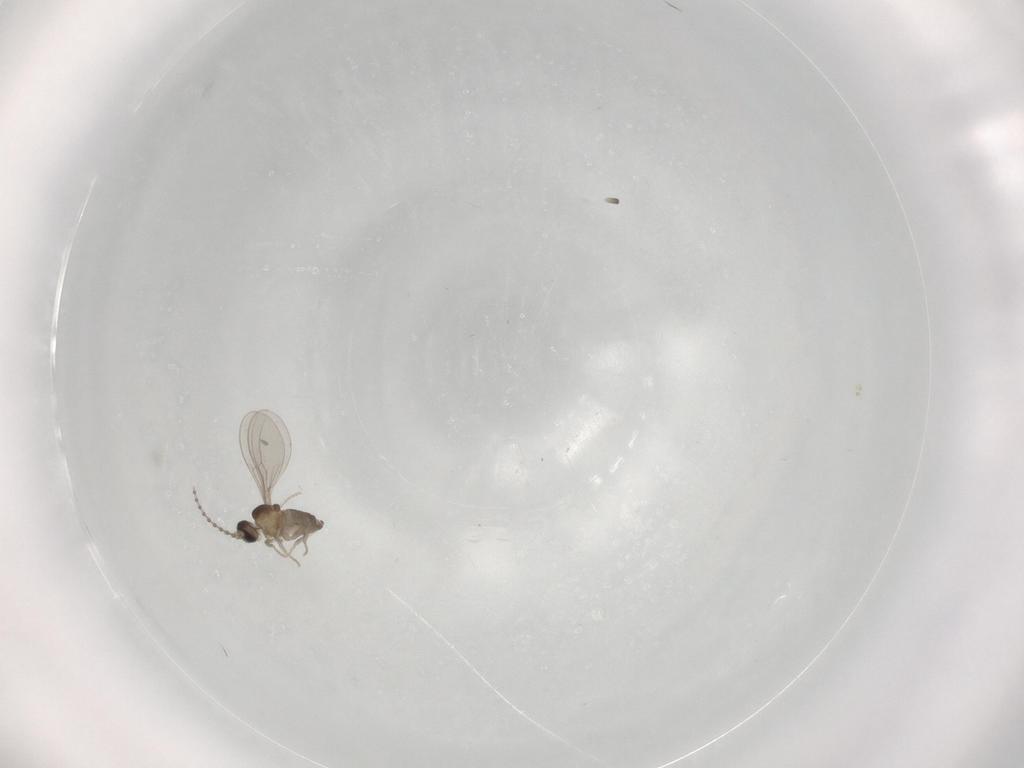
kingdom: Animalia
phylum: Arthropoda
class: Insecta
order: Diptera
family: Cecidomyiidae
